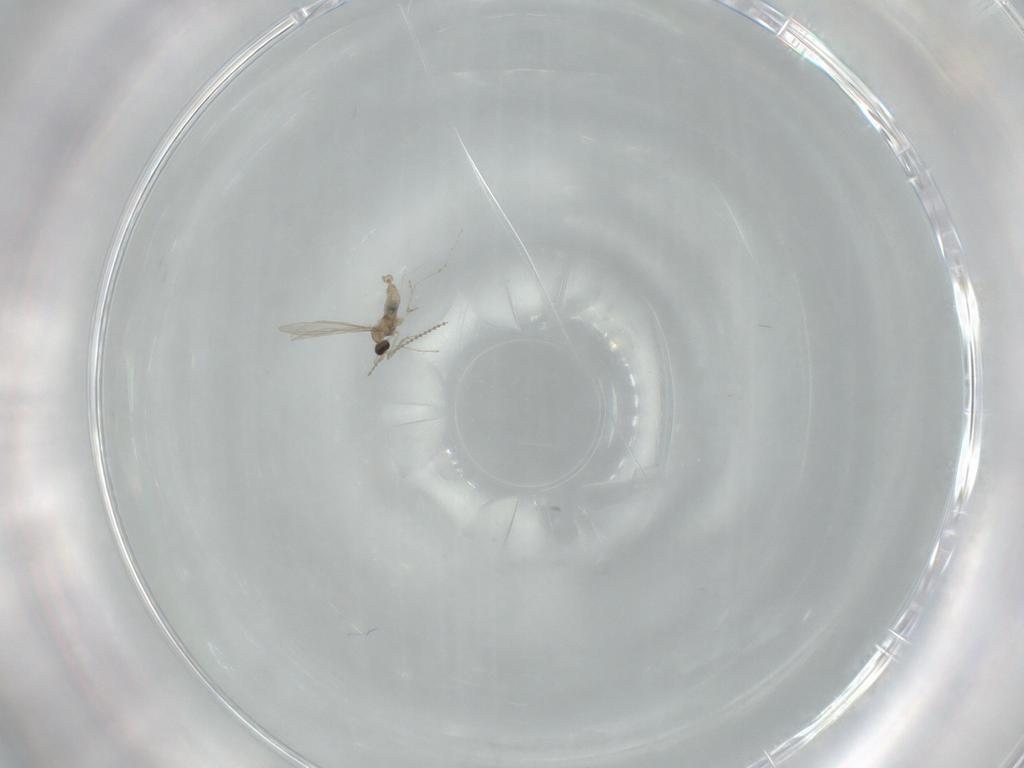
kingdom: Animalia
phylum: Arthropoda
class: Insecta
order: Diptera
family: Cecidomyiidae
